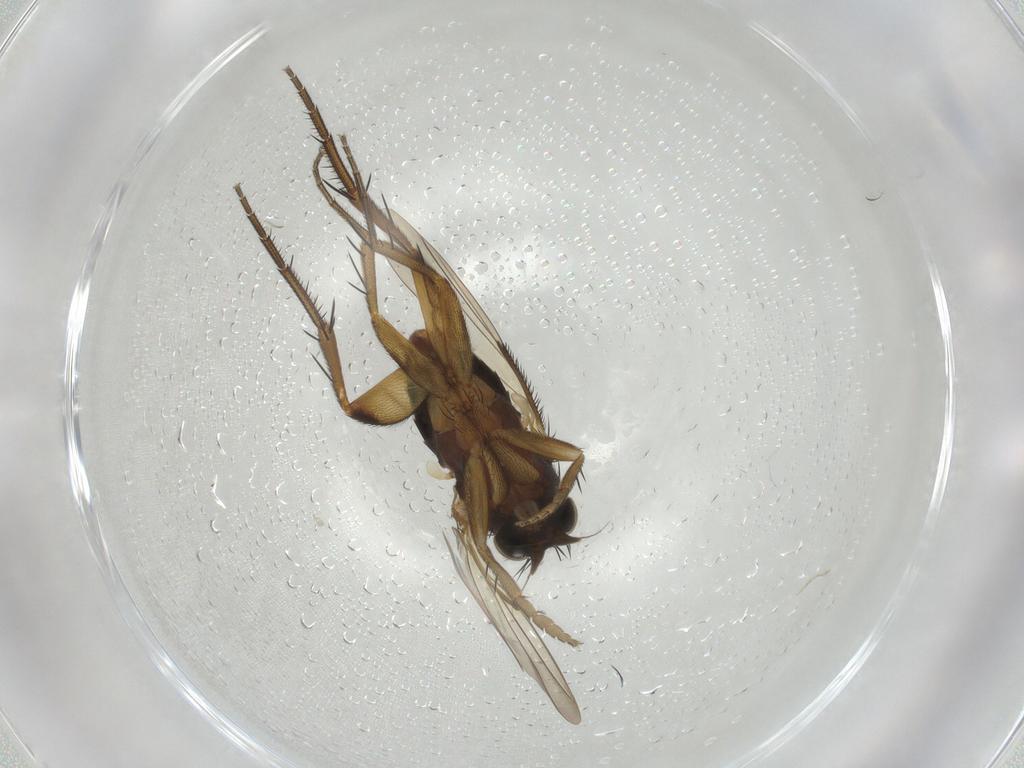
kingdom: Animalia
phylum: Arthropoda
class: Insecta
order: Diptera
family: Phoridae
